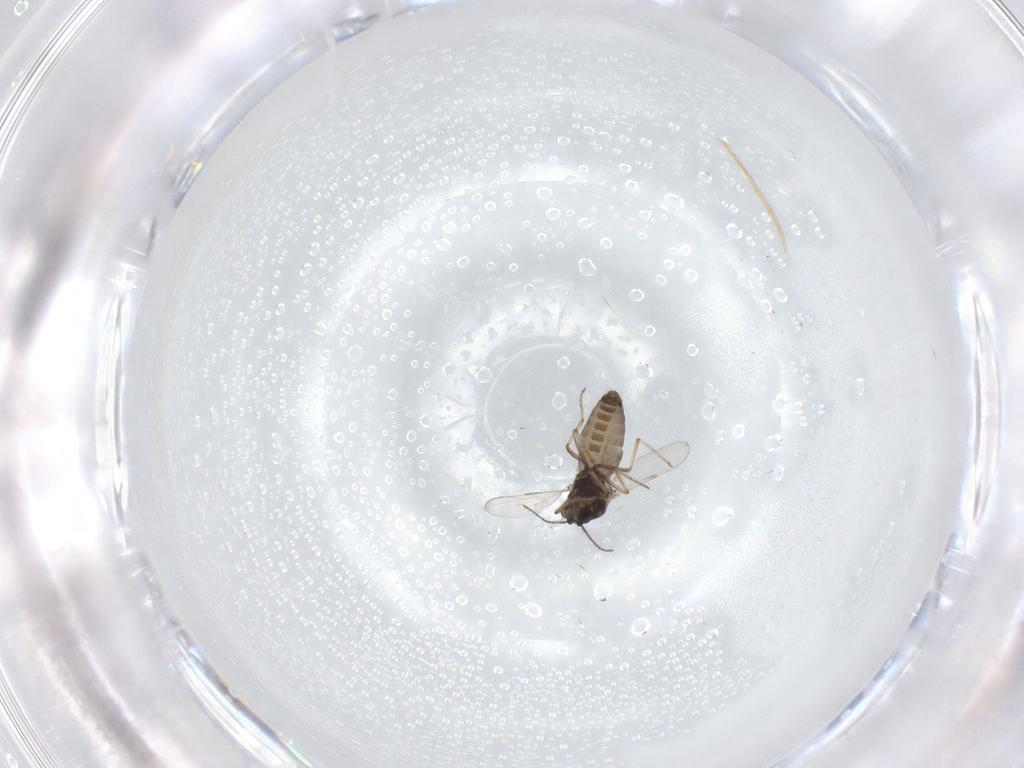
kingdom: Animalia
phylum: Arthropoda
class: Insecta
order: Diptera
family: Ceratopogonidae
